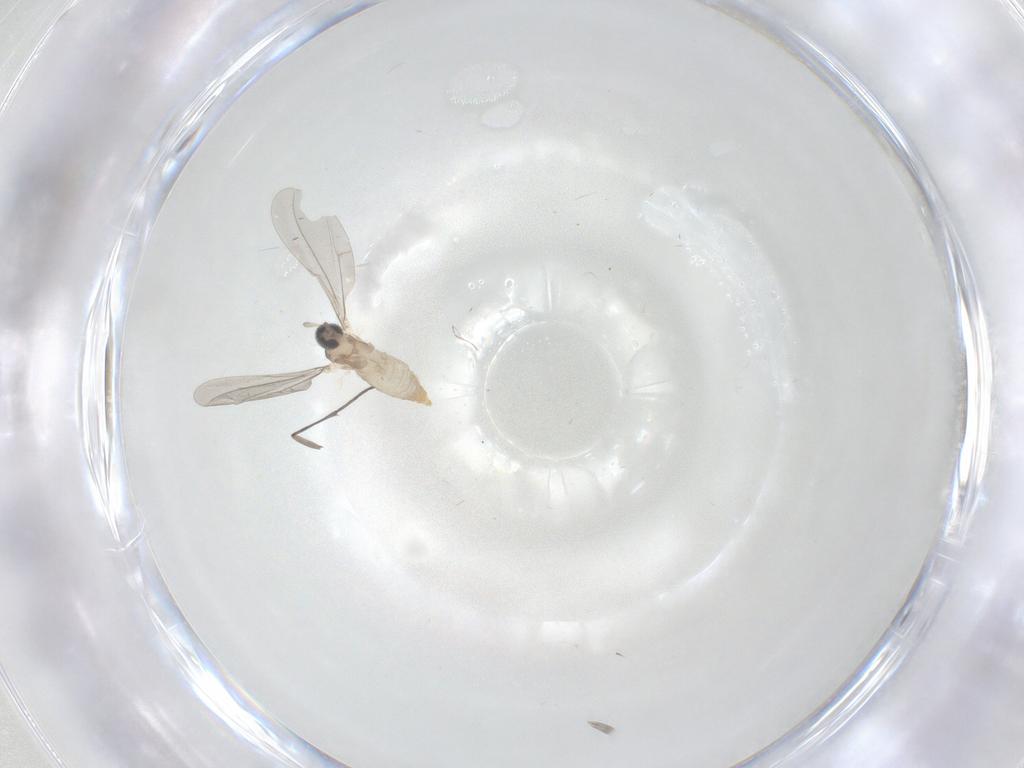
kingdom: Animalia
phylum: Arthropoda
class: Insecta
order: Diptera
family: Cecidomyiidae
